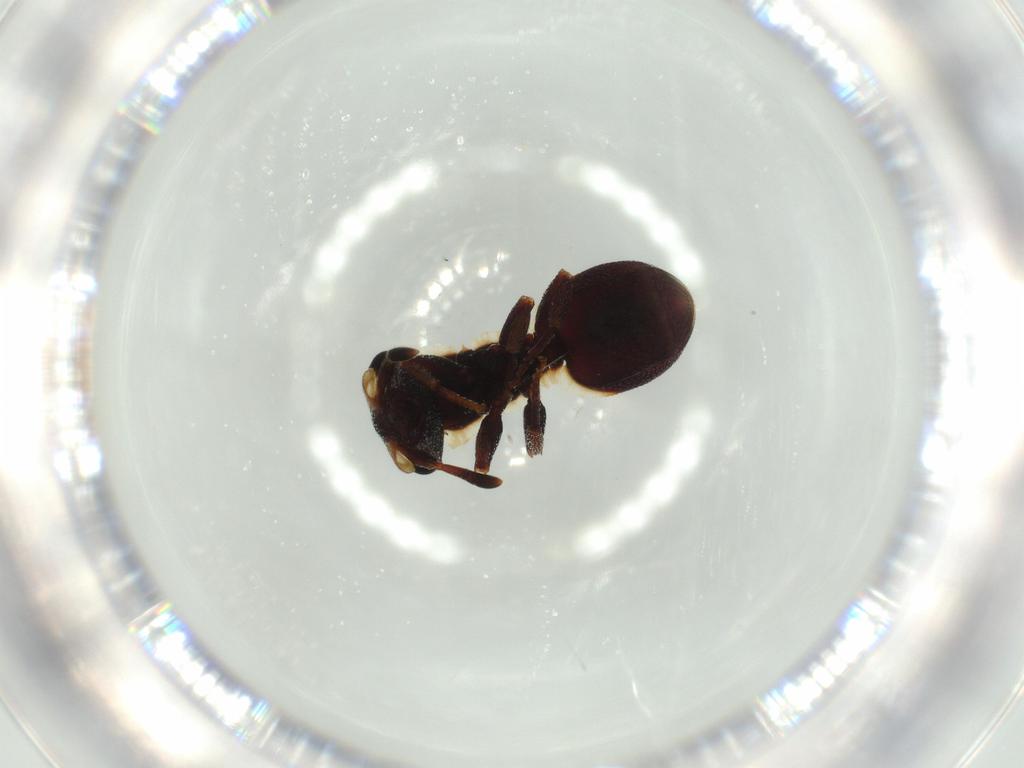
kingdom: Animalia
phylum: Arthropoda
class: Insecta
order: Hymenoptera
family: Formicidae
